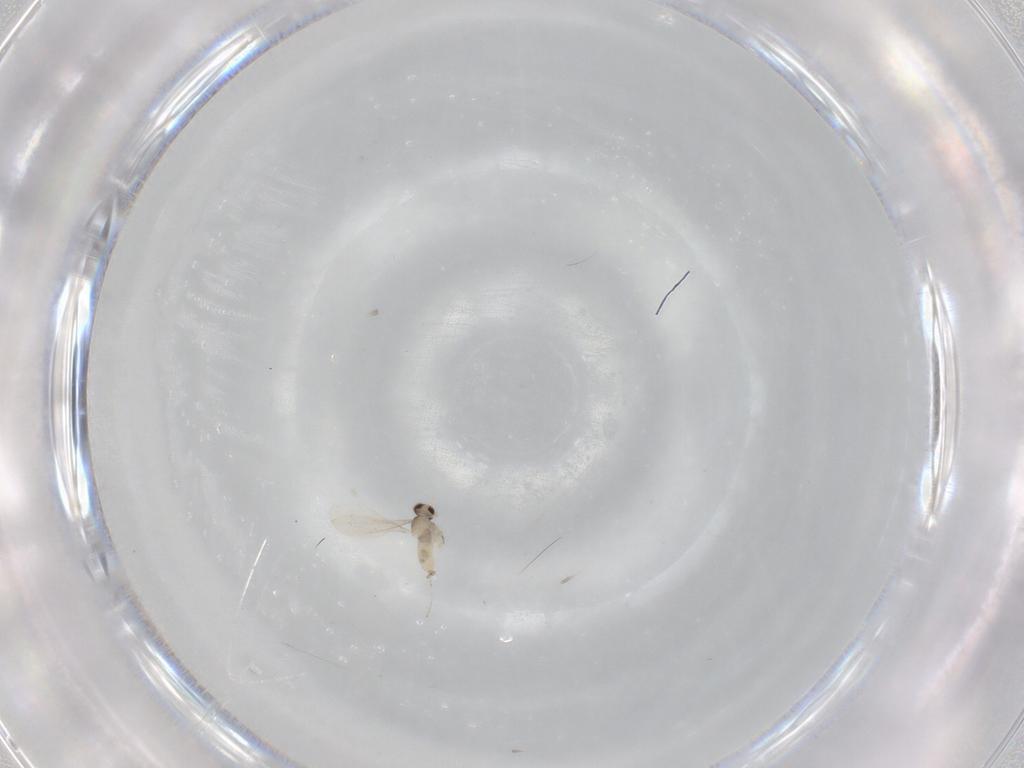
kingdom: Animalia
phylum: Arthropoda
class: Insecta
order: Diptera
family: Cecidomyiidae
